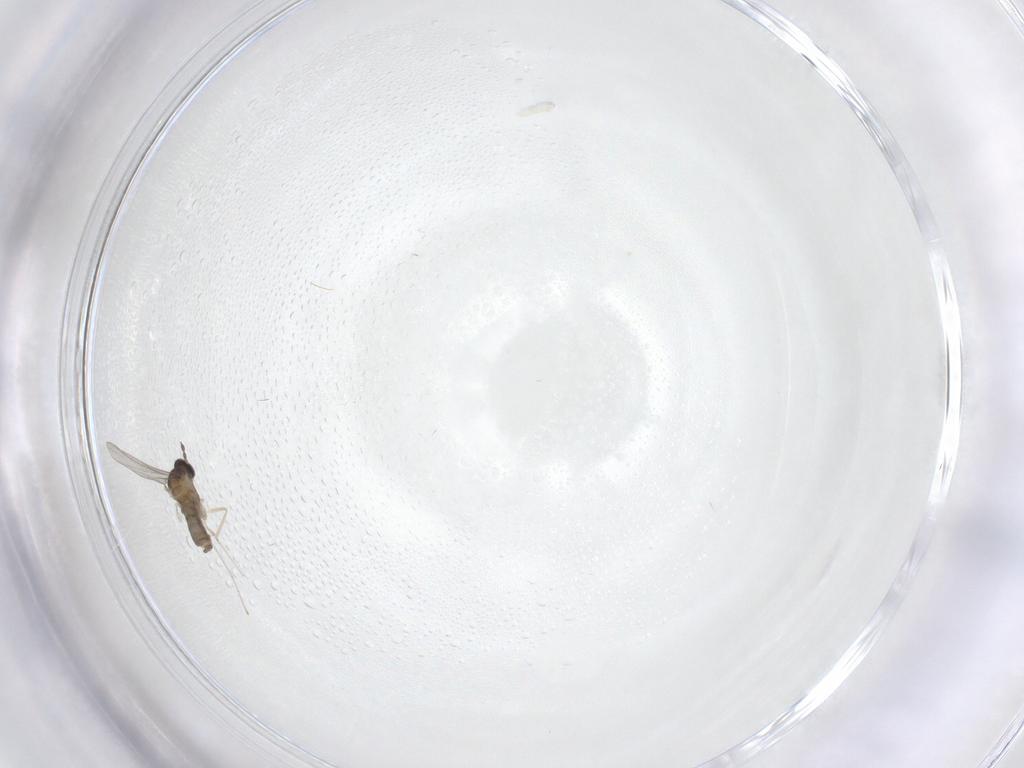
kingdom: Animalia
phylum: Arthropoda
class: Insecta
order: Diptera
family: Cecidomyiidae
